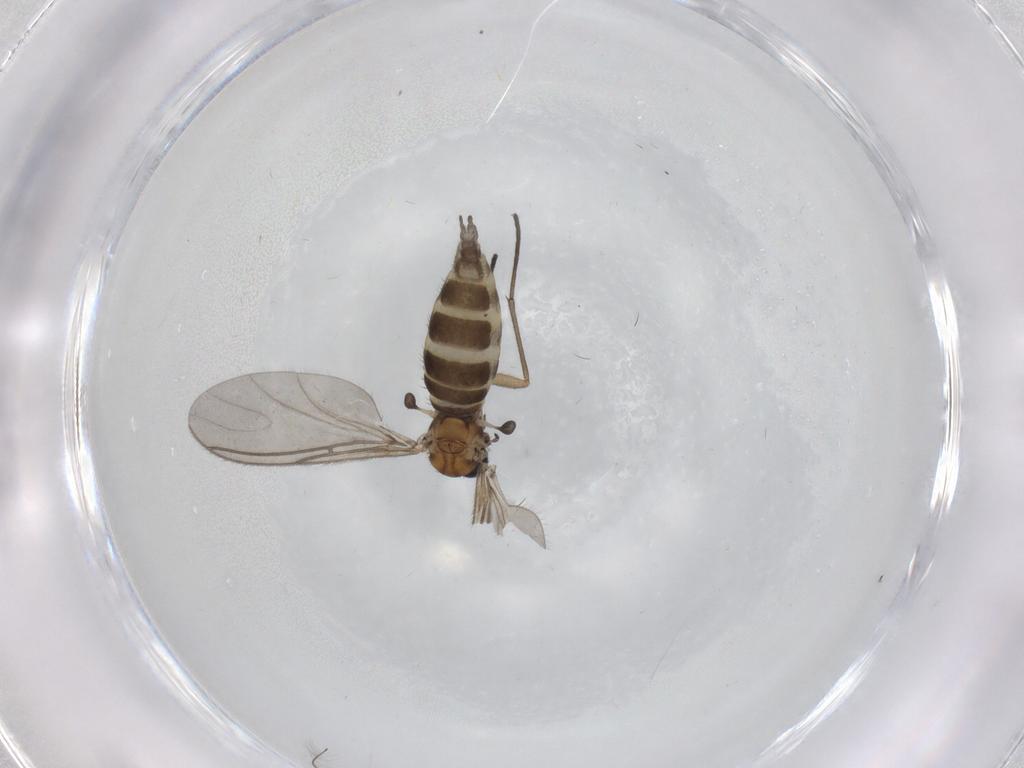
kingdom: Animalia
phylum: Arthropoda
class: Insecta
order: Diptera
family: Sciaridae
